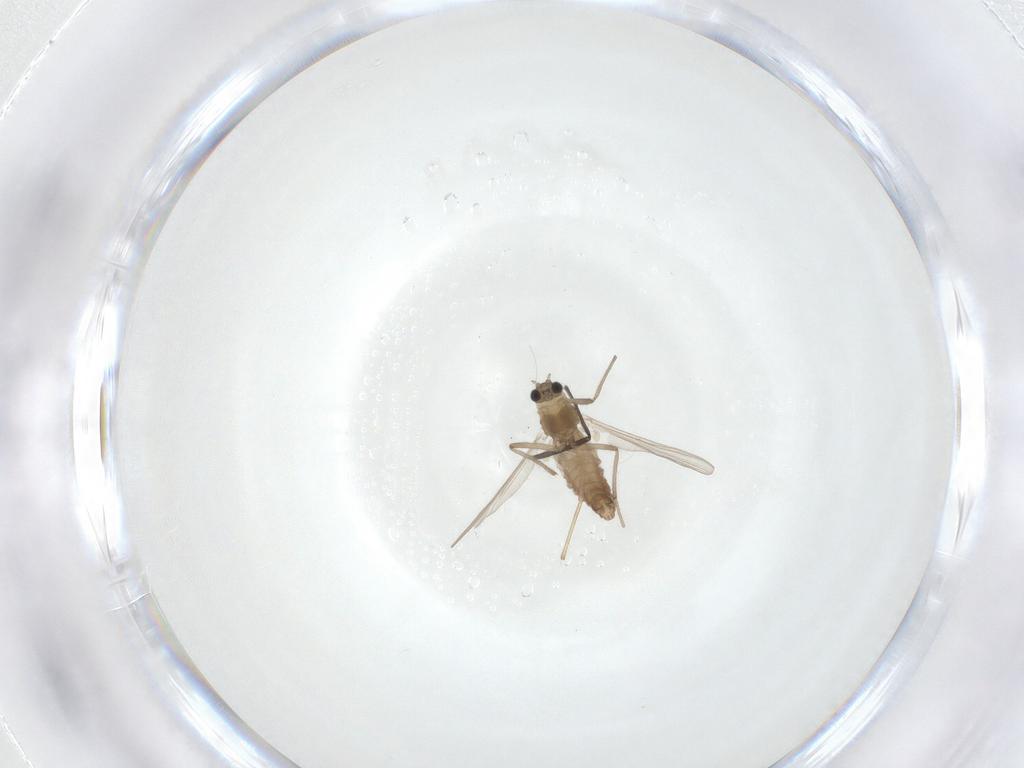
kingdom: Animalia
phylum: Arthropoda
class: Insecta
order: Diptera
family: Chironomidae
